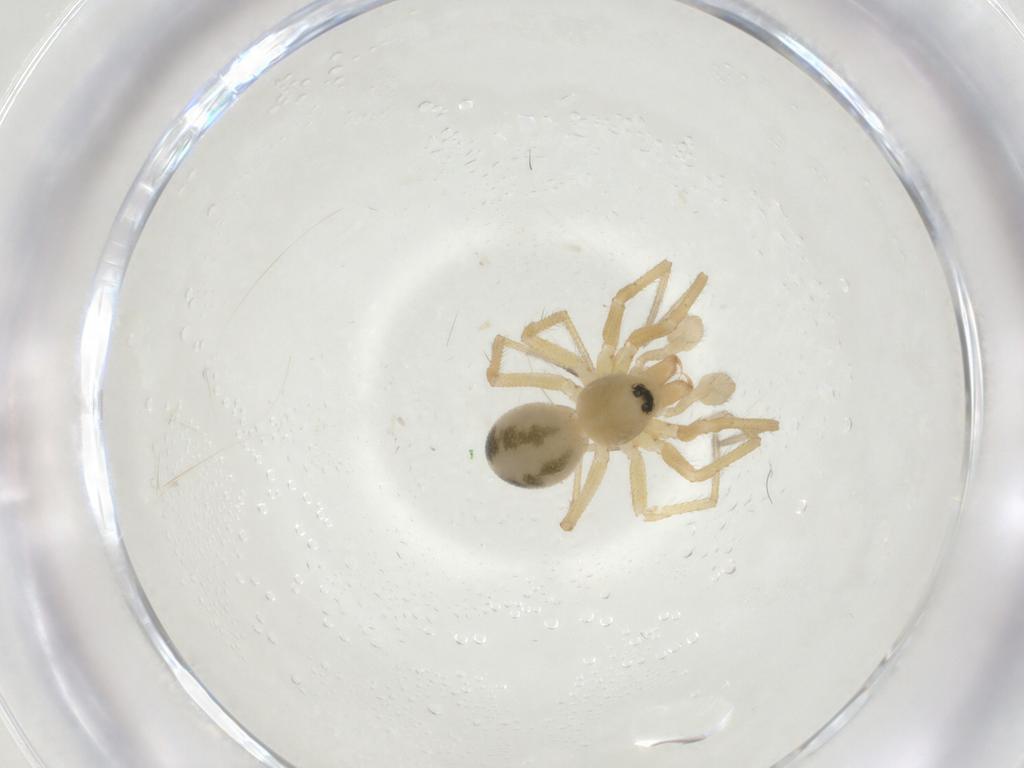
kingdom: Animalia
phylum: Arthropoda
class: Arachnida
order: Araneae
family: Linyphiidae
